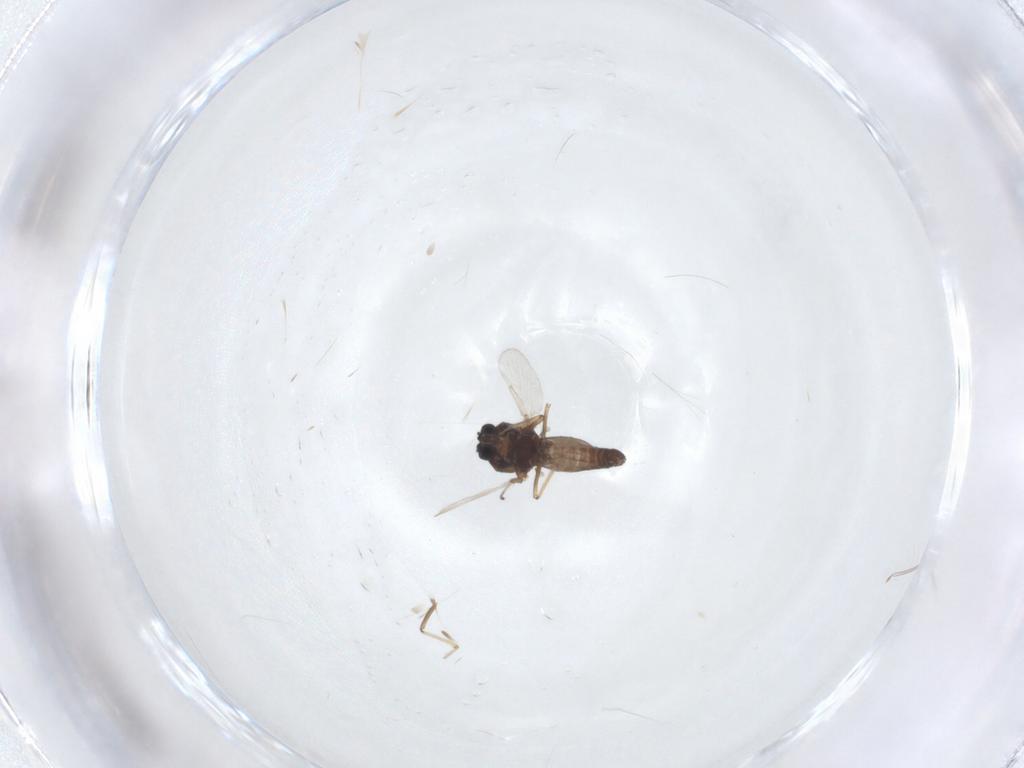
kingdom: Animalia
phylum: Arthropoda
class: Insecta
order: Diptera
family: Ceratopogonidae
